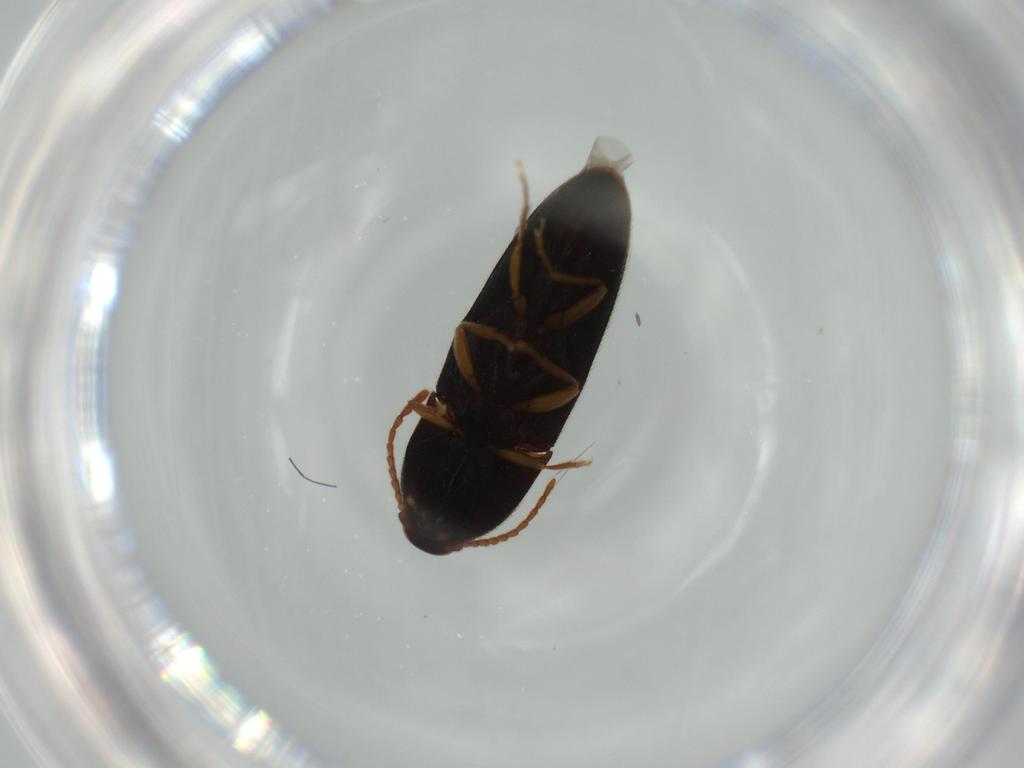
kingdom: Animalia
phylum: Arthropoda
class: Insecta
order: Coleoptera
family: Elateridae
